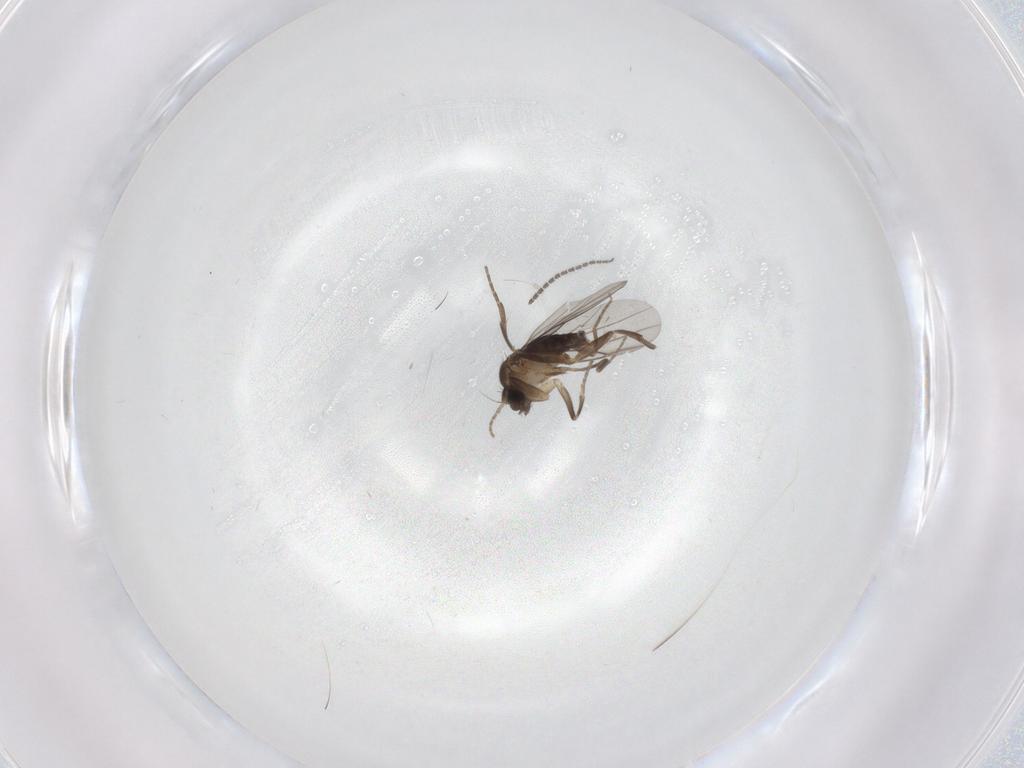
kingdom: Animalia
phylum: Arthropoda
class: Insecta
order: Diptera
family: Sciaridae
